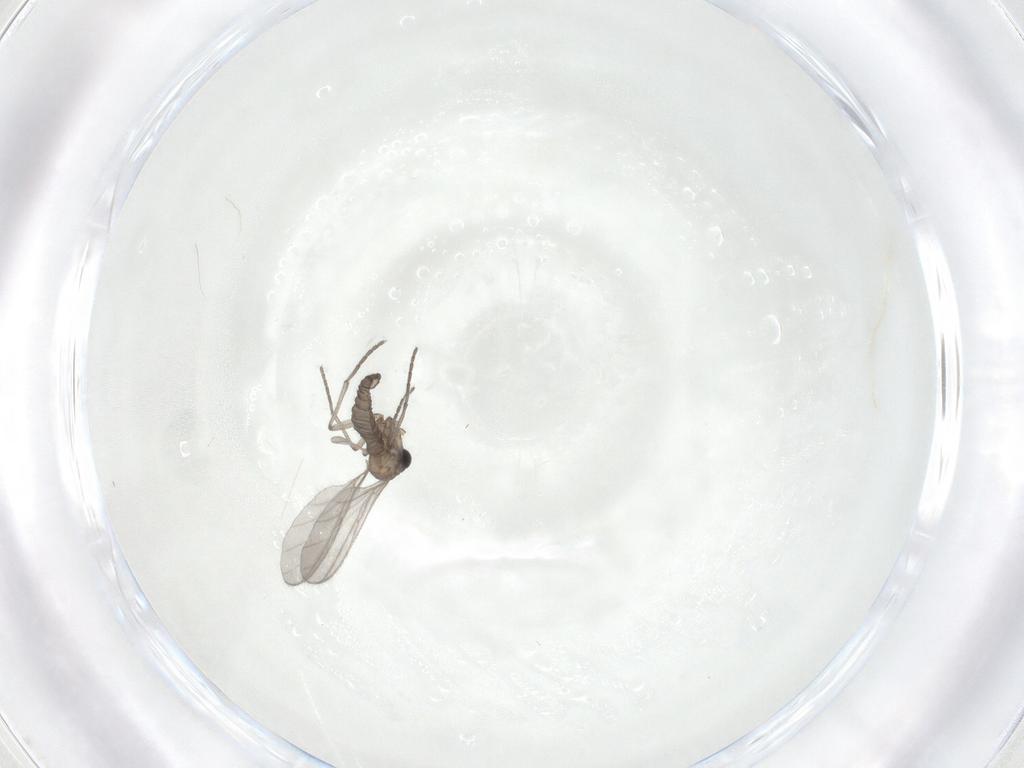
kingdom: Animalia
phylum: Arthropoda
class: Insecta
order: Diptera
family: Sciaridae
